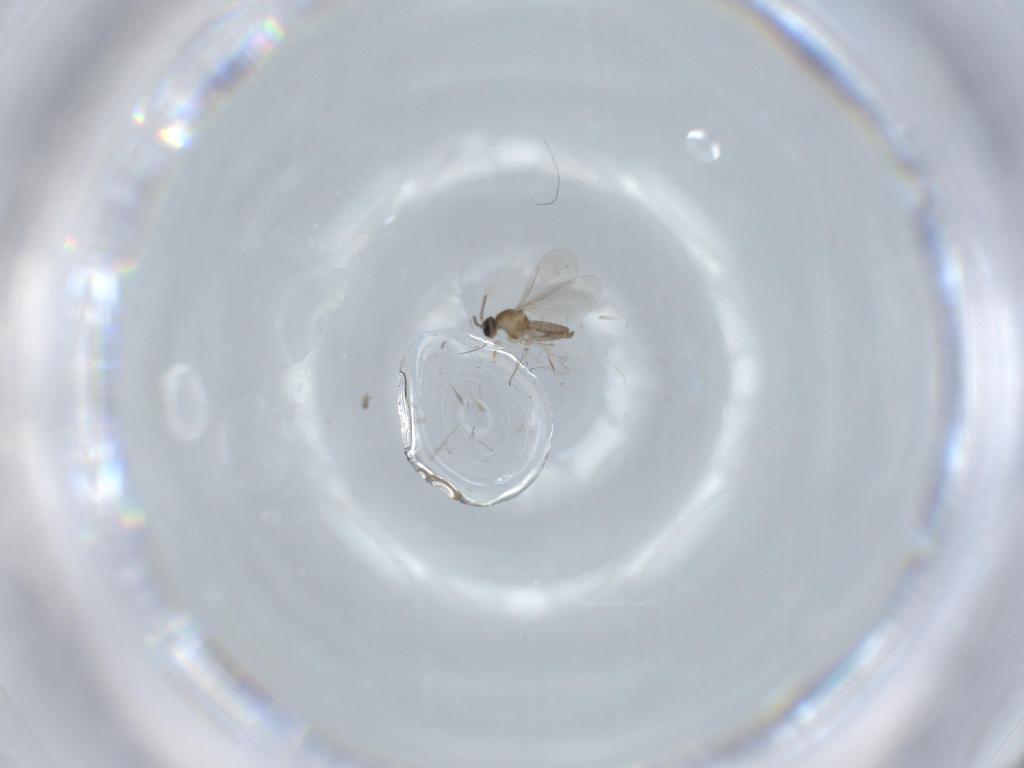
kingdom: Animalia
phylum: Arthropoda
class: Insecta
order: Diptera
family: Cecidomyiidae
